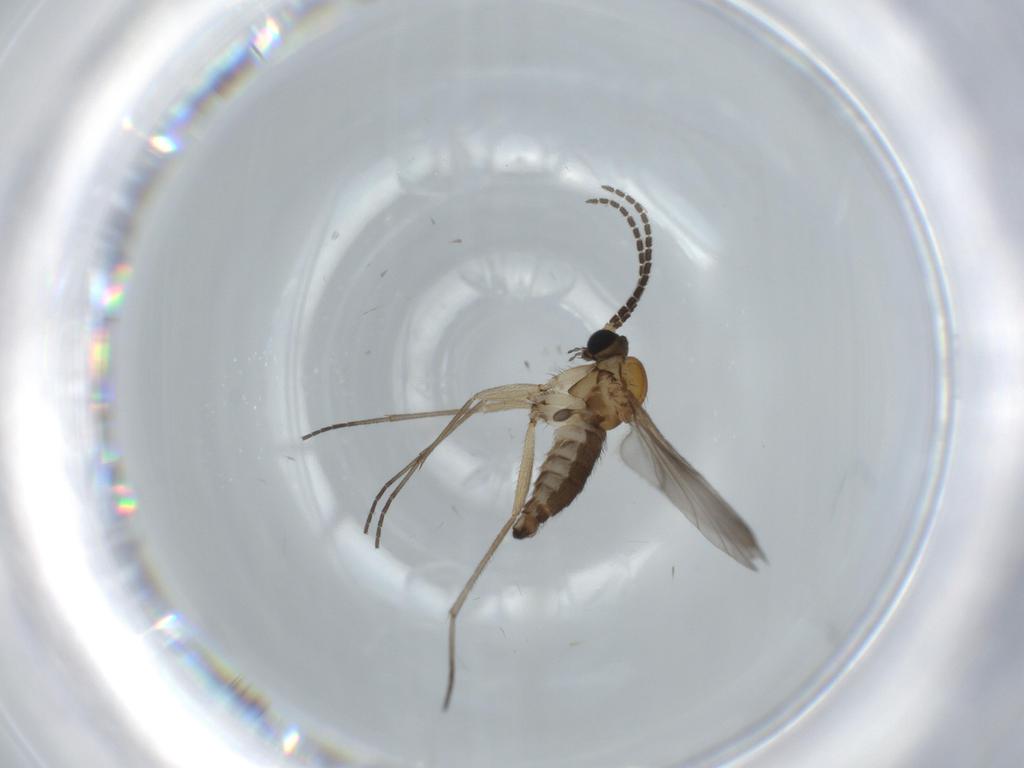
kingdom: Animalia
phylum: Arthropoda
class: Insecta
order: Diptera
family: Sciaridae
